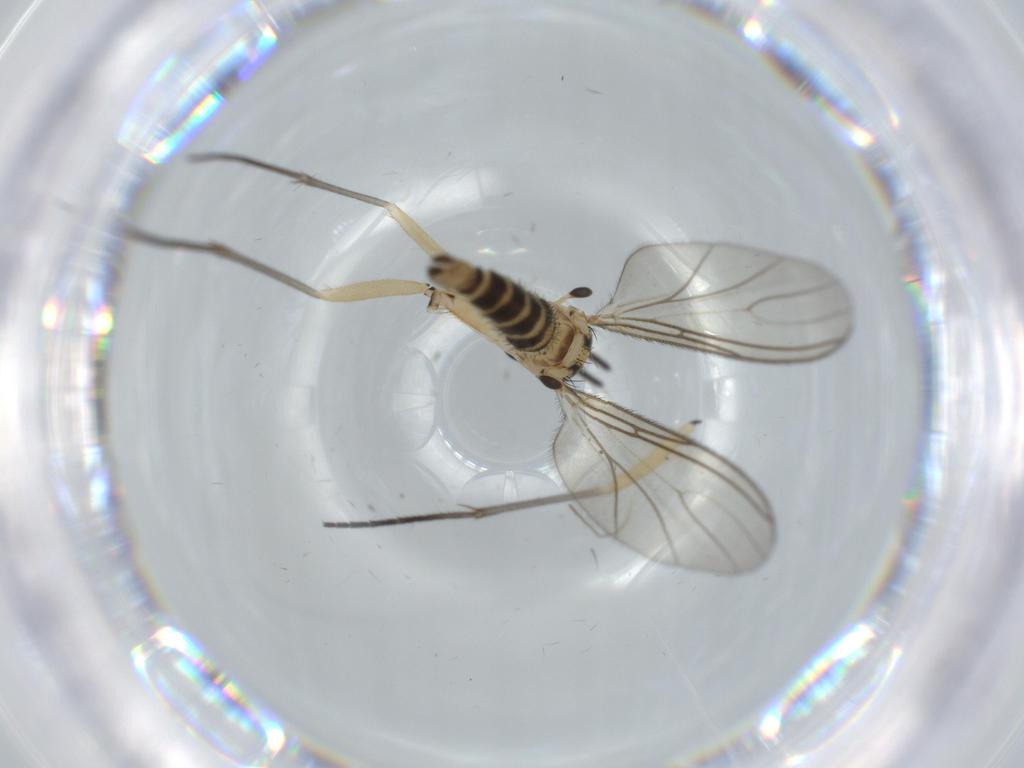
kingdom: Animalia
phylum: Arthropoda
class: Insecta
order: Diptera
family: Sciaridae
